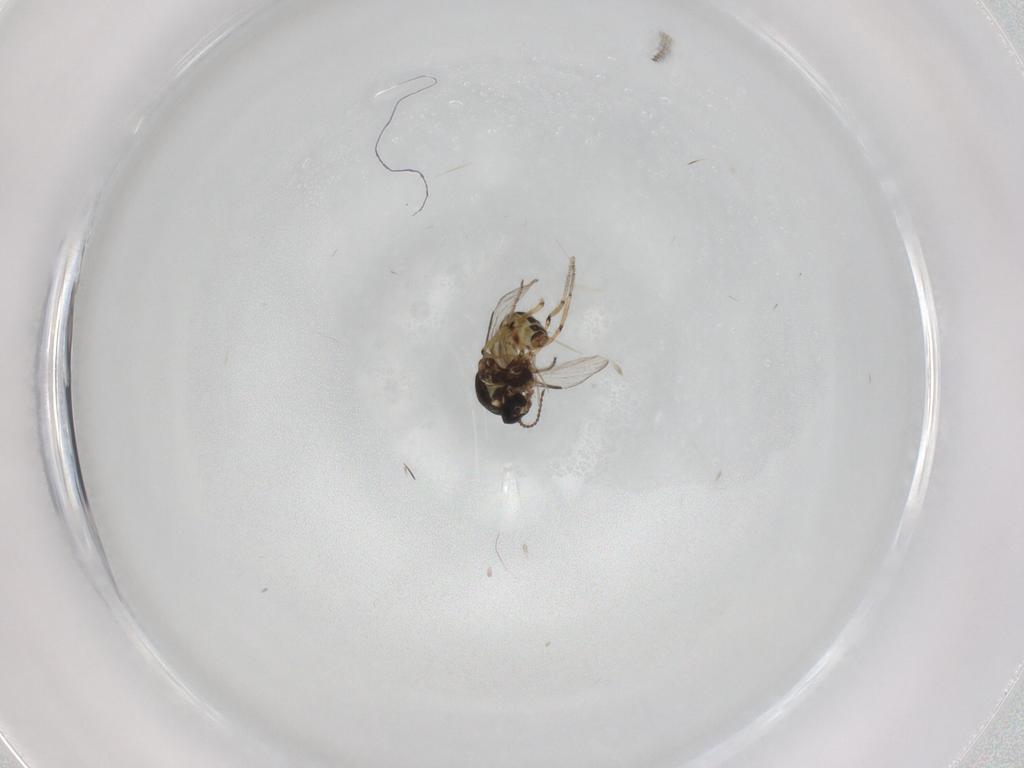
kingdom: Animalia
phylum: Arthropoda
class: Insecta
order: Diptera
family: Cecidomyiidae
